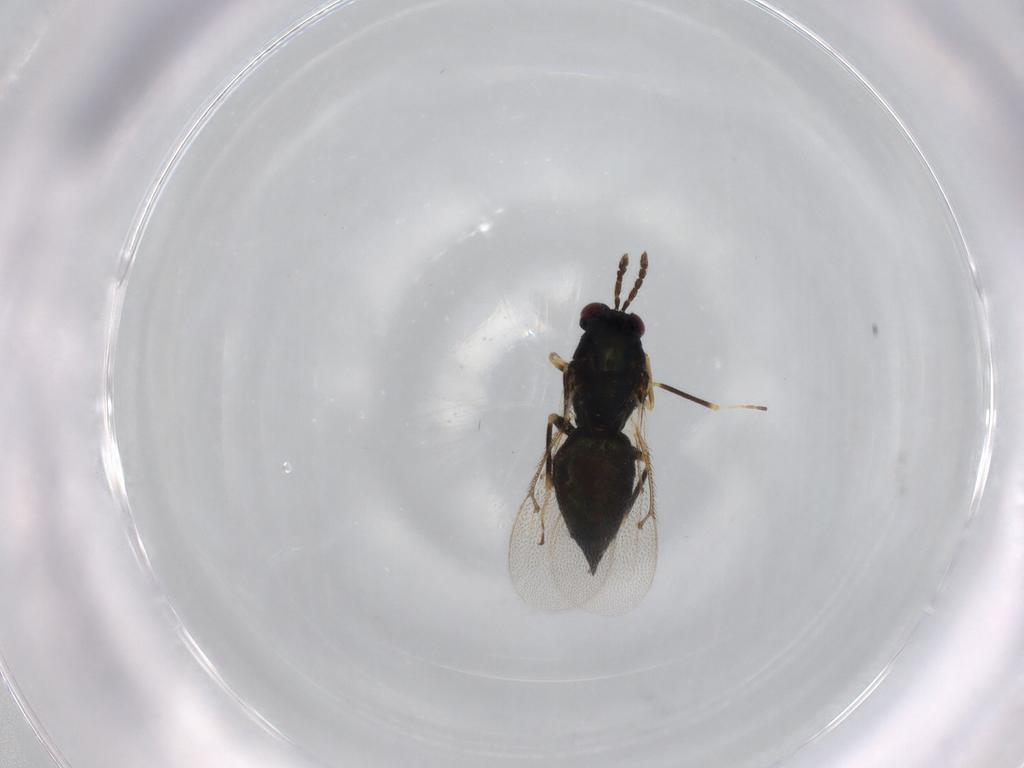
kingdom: Animalia
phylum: Arthropoda
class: Insecta
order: Hymenoptera
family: Eulophidae
